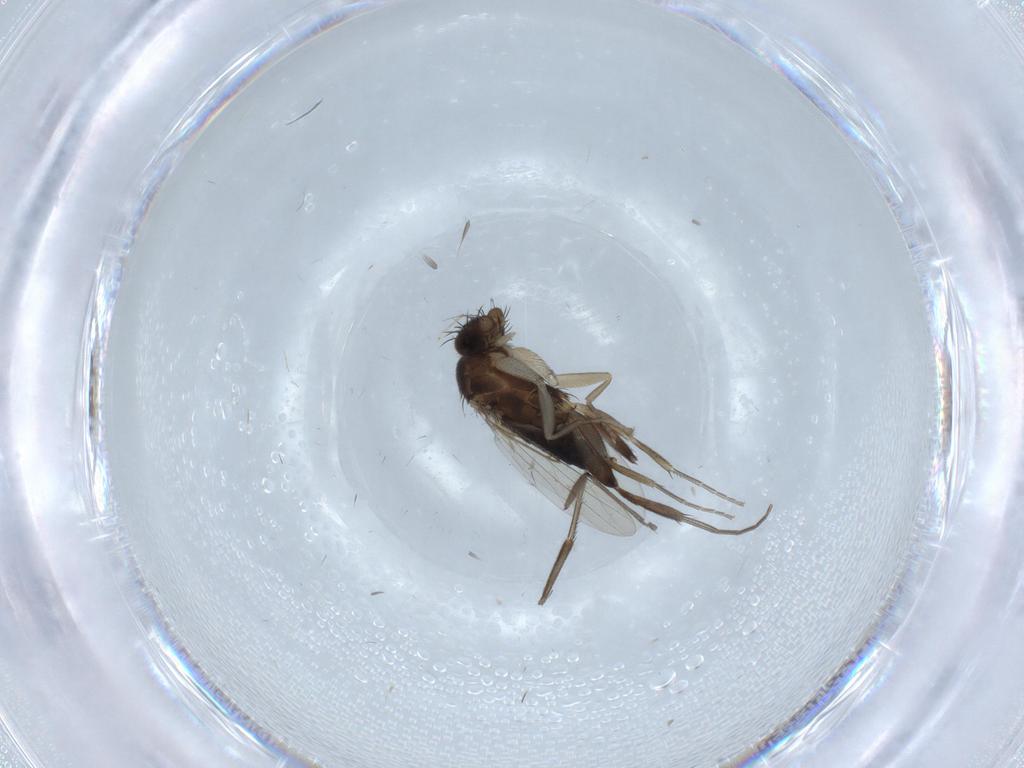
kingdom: Animalia
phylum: Arthropoda
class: Insecta
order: Diptera
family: Phoridae
